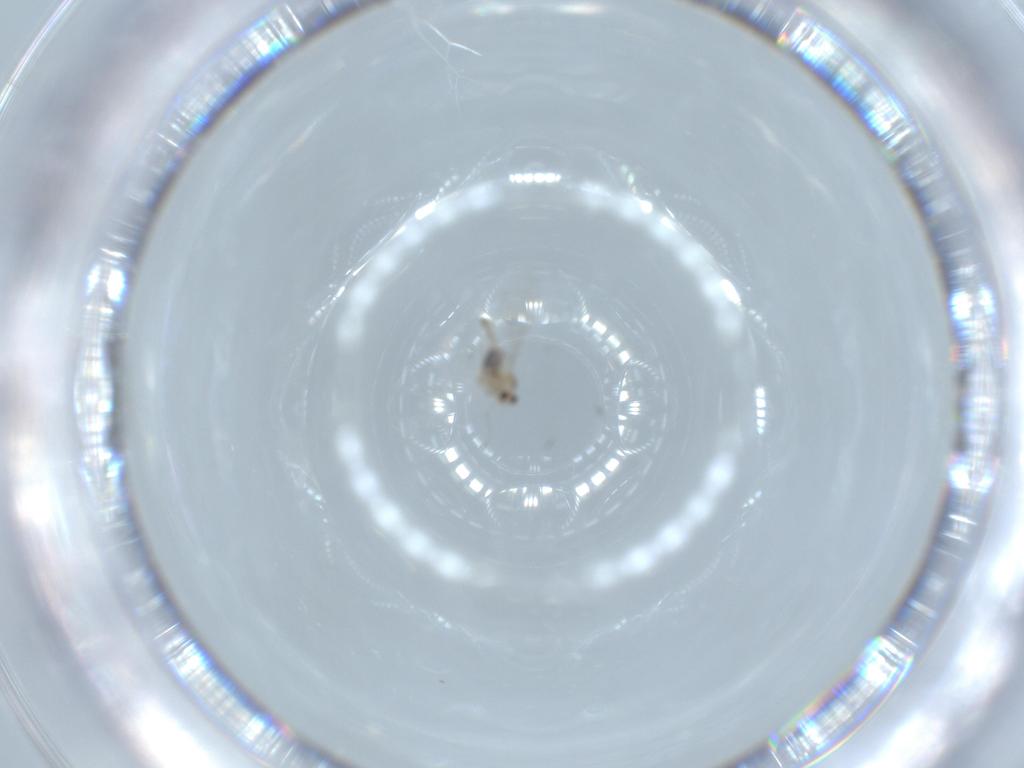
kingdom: Animalia
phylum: Arthropoda
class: Insecta
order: Diptera
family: Cecidomyiidae
